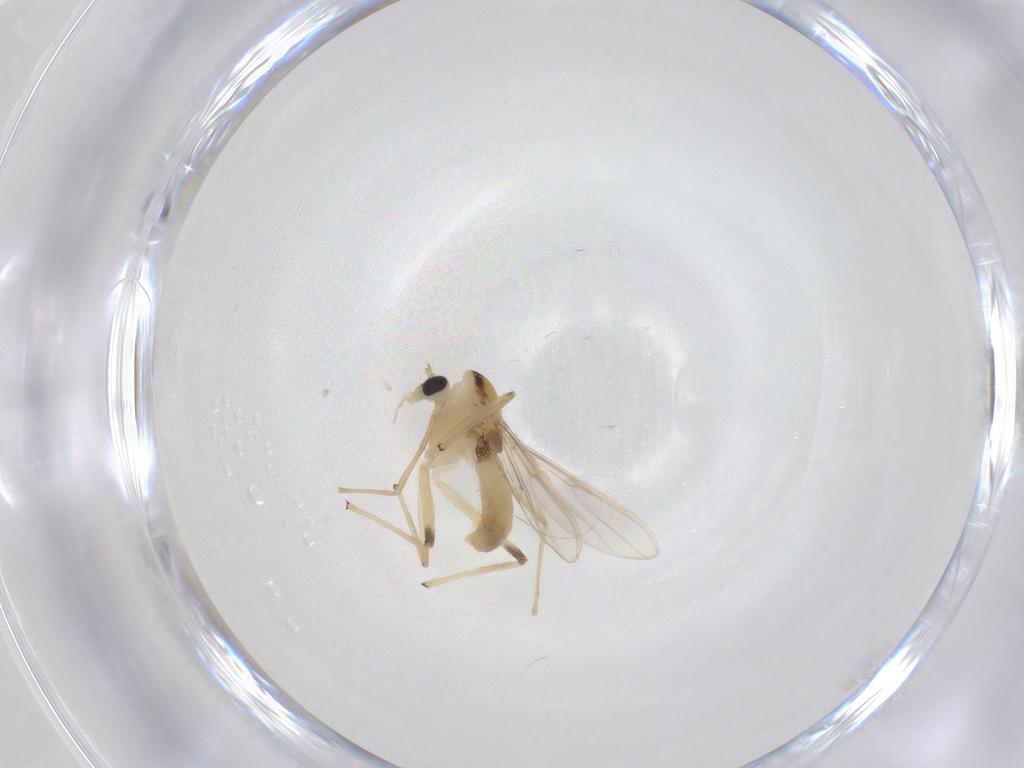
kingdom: Animalia
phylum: Arthropoda
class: Insecta
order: Diptera
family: Chironomidae
